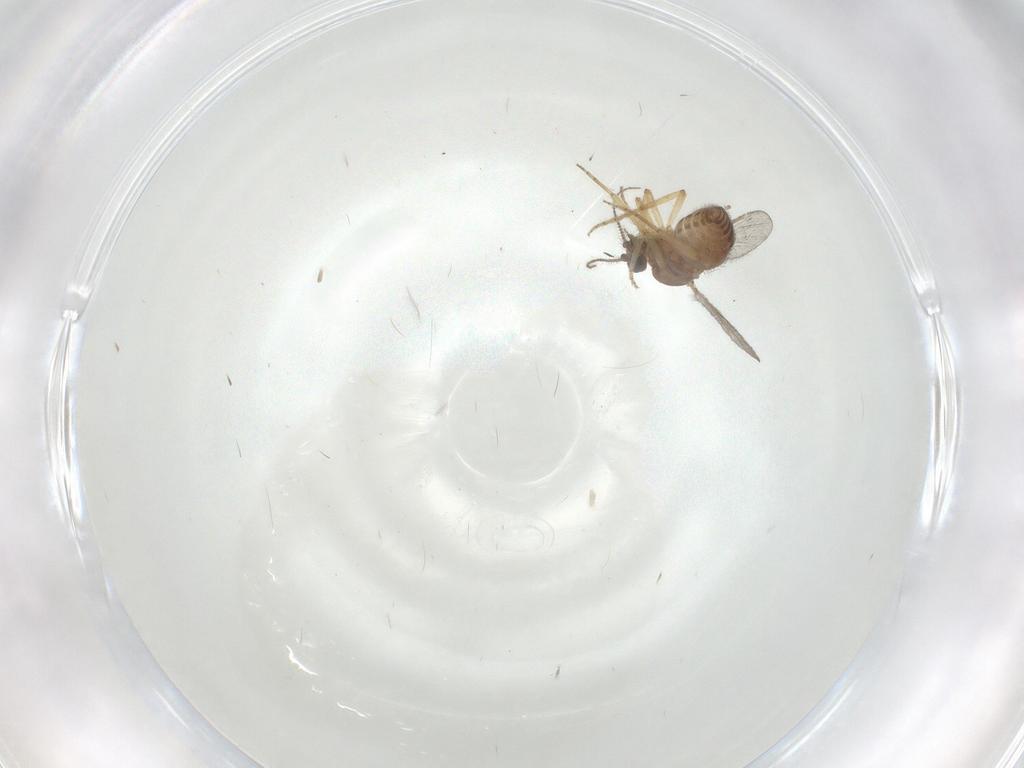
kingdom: Animalia
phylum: Arthropoda
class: Insecta
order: Diptera
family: Ceratopogonidae
